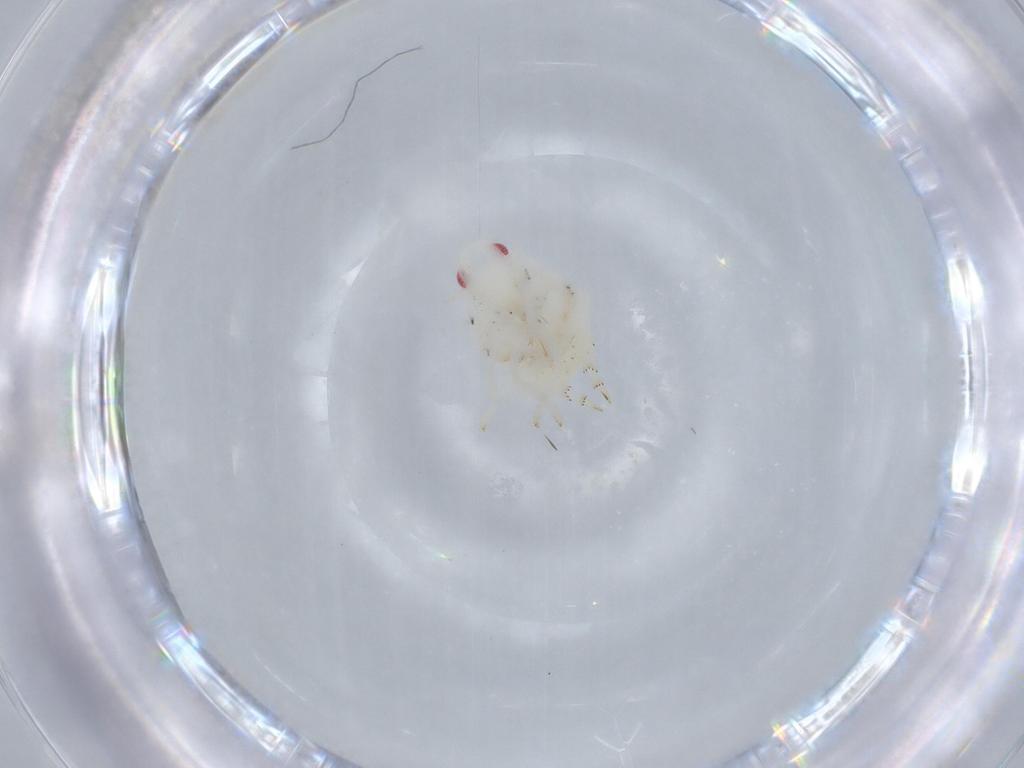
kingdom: Animalia
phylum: Arthropoda
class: Insecta
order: Hemiptera
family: Flatidae
